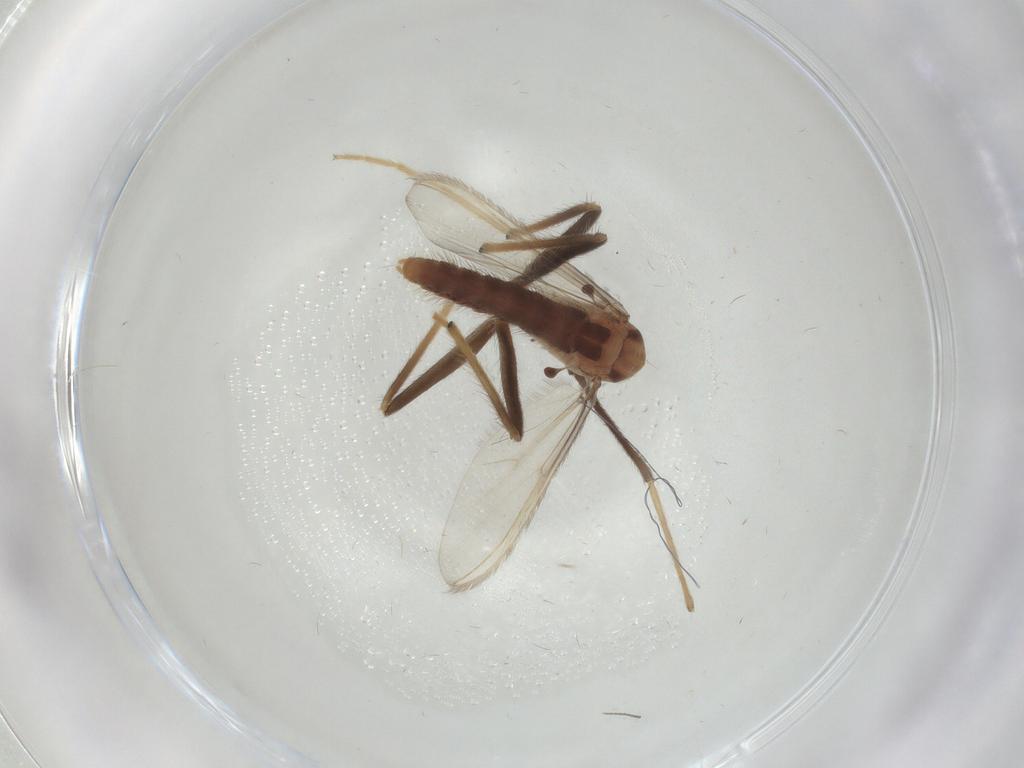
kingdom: Animalia
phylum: Arthropoda
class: Insecta
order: Diptera
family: Chironomidae
